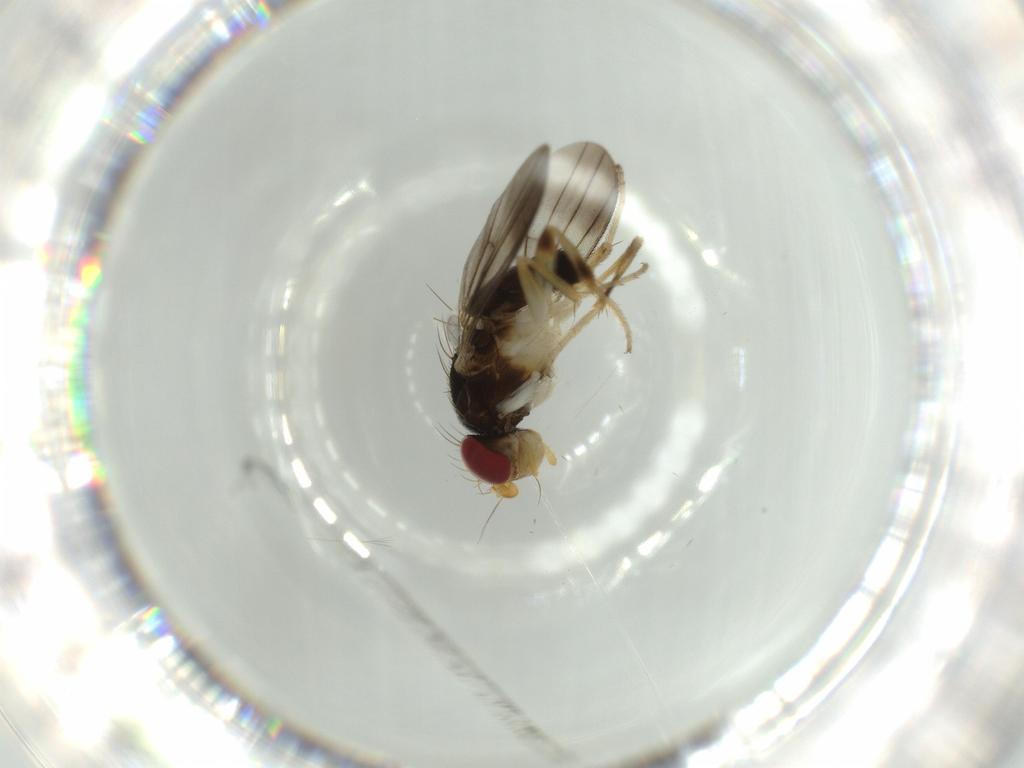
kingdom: Animalia
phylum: Arthropoda
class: Insecta
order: Diptera
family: Clusiidae
